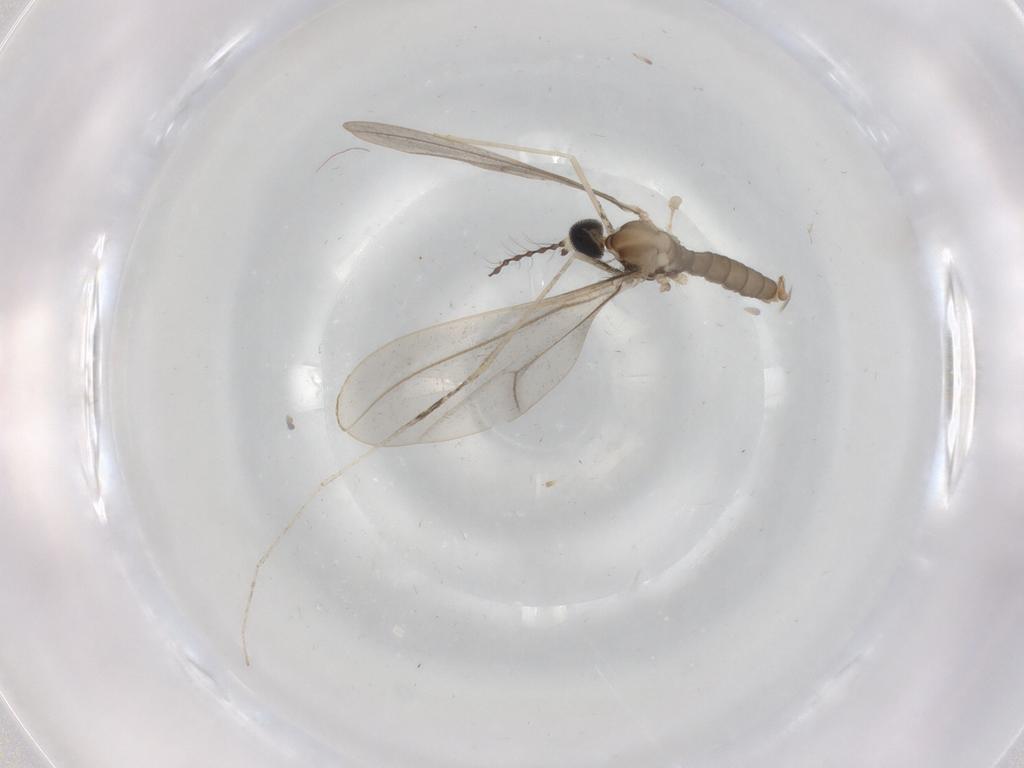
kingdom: Animalia
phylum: Arthropoda
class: Insecta
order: Diptera
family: Cecidomyiidae
